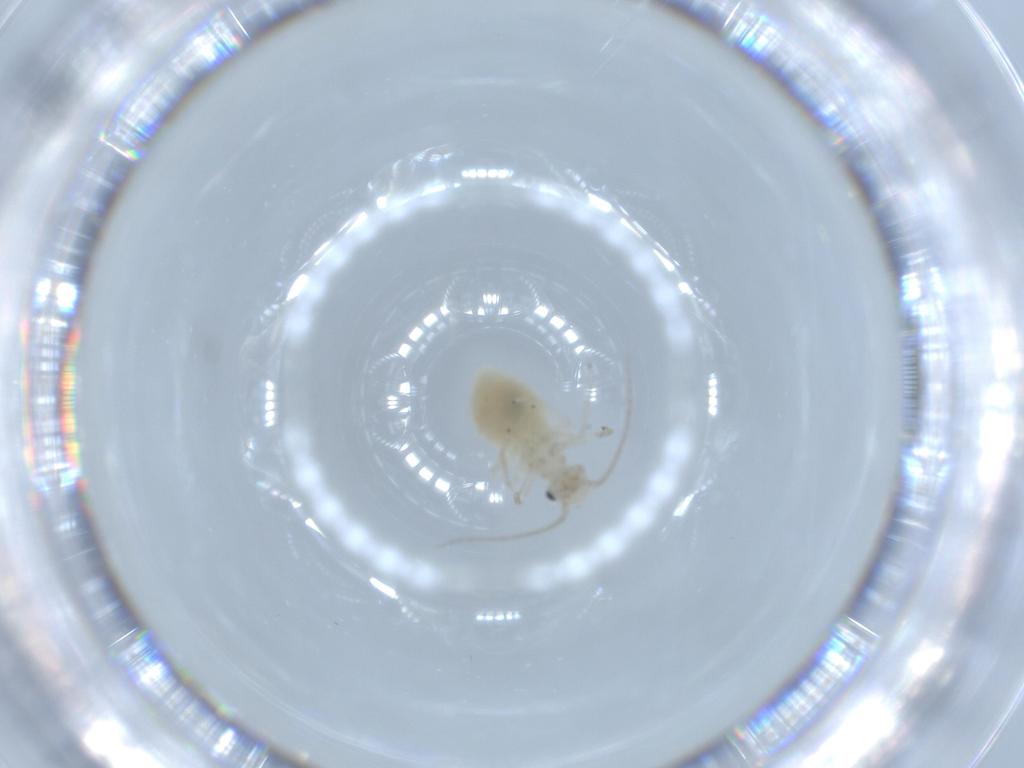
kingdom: Animalia
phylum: Arthropoda
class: Insecta
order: Psocodea
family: Caeciliusidae
